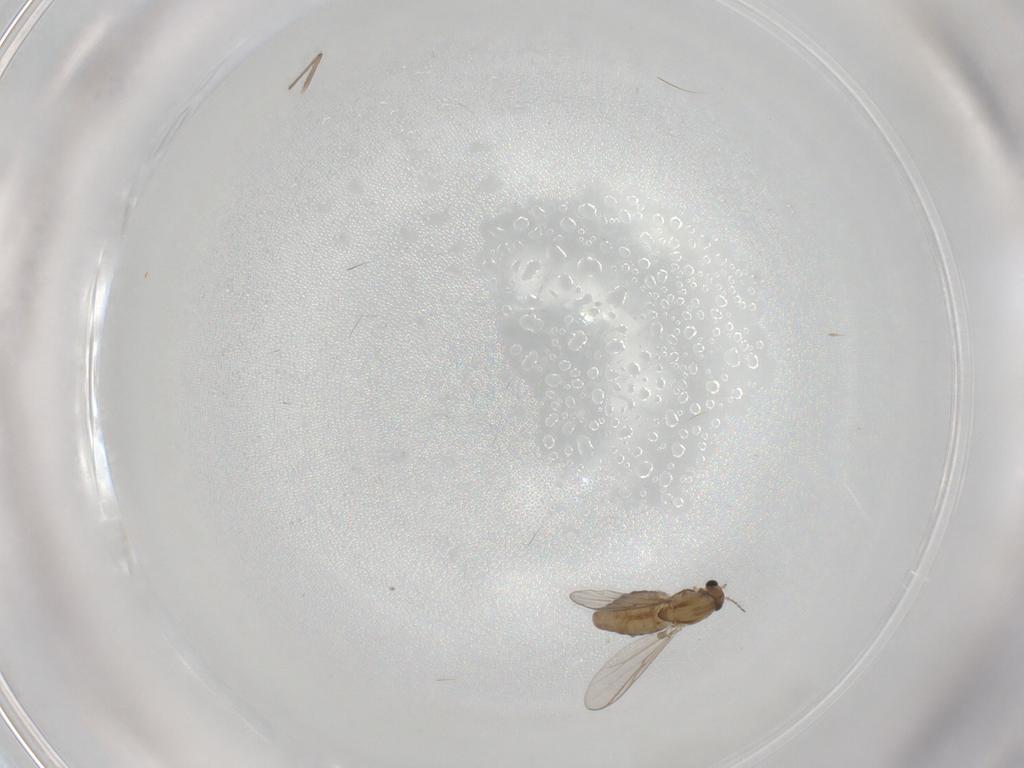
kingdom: Animalia
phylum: Arthropoda
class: Insecta
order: Diptera
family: Chironomidae
